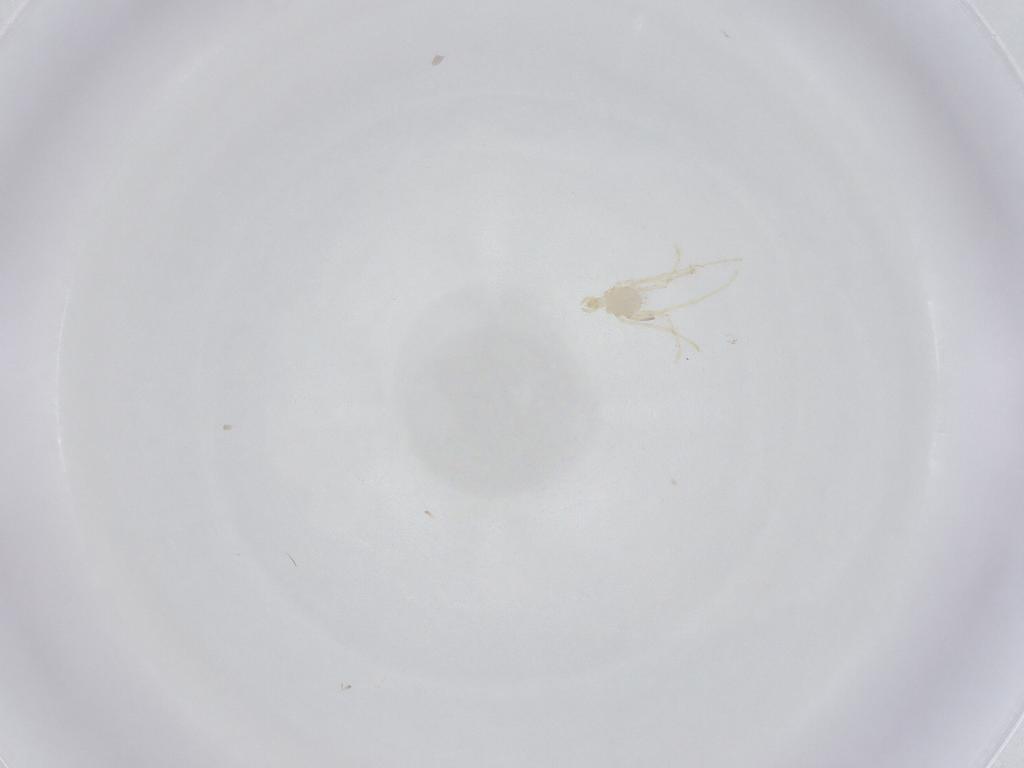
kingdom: Animalia
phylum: Arthropoda
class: Arachnida
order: Trombidiformes
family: Erythraeidae
